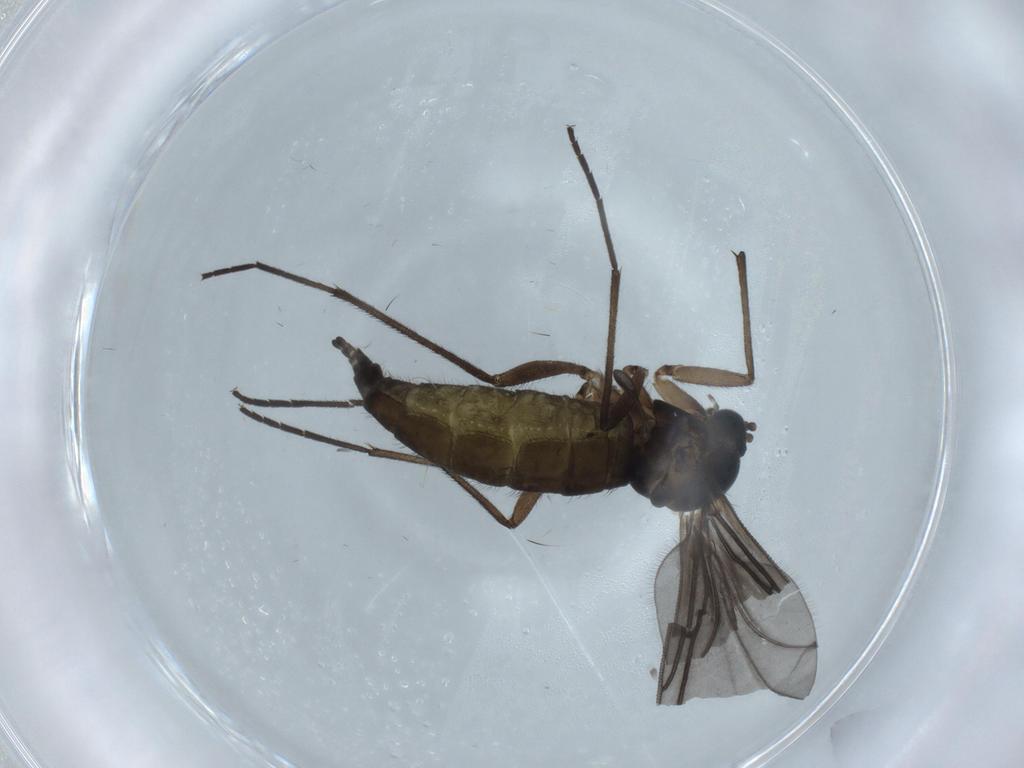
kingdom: Animalia
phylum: Arthropoda
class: Insecta
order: Diptera
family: Sciaridae
